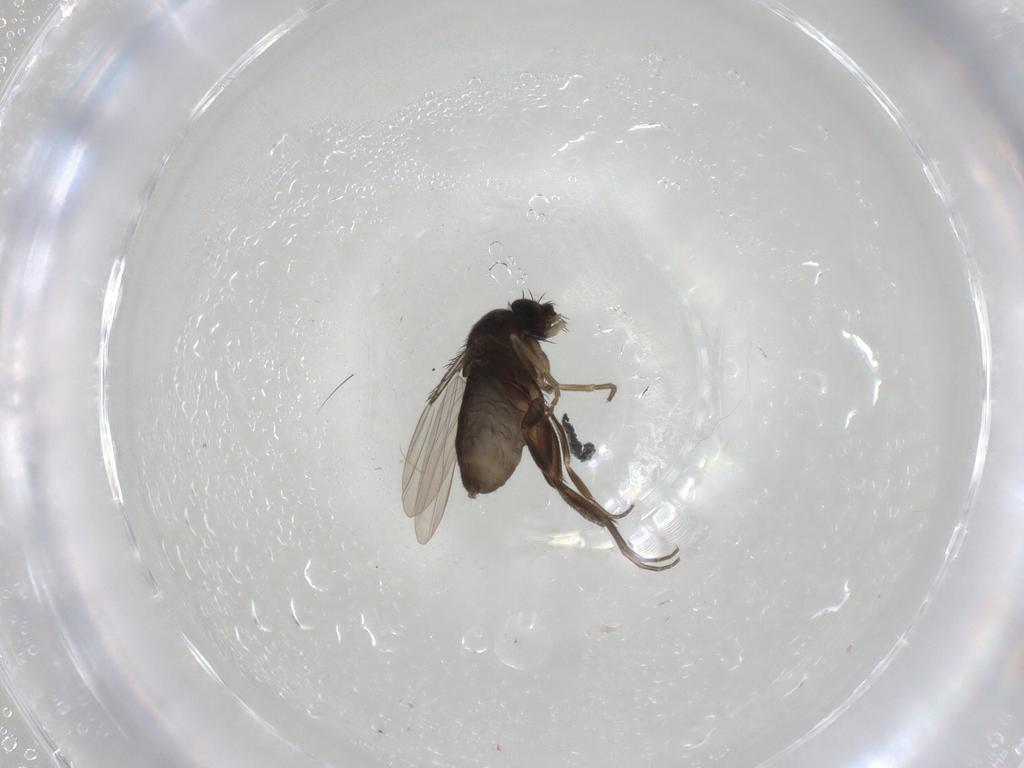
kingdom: Animalia
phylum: Arthropoda
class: Insecta
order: Diptera
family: Phoridae
